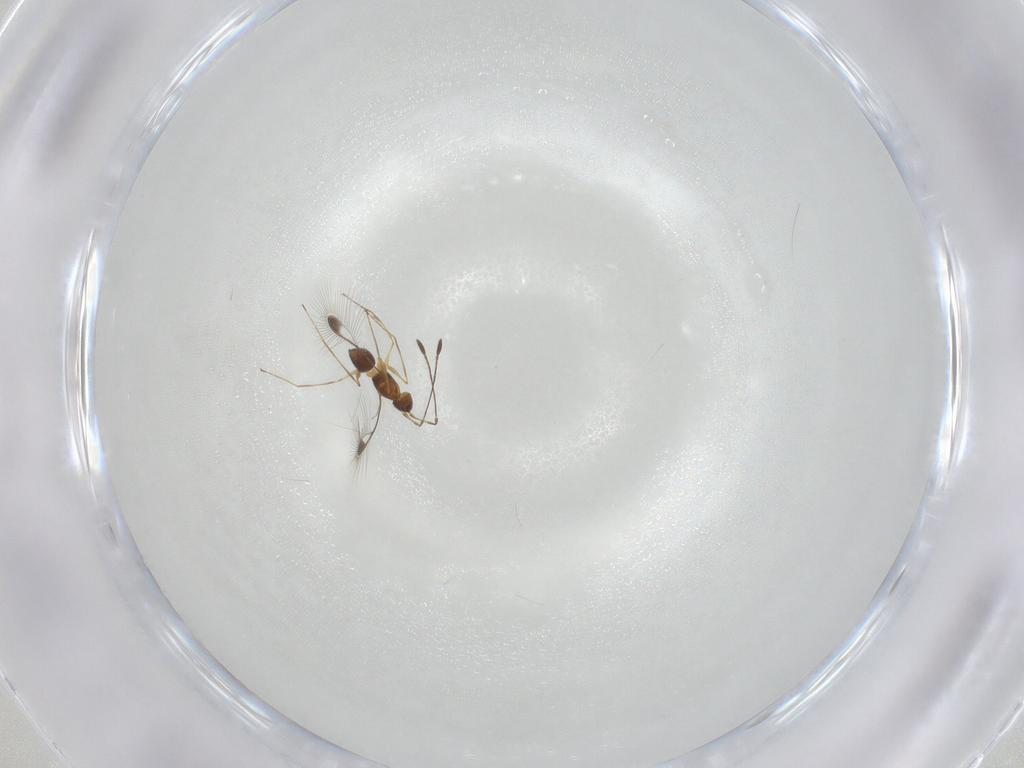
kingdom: Animalia
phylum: Arthropoda
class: Insecta
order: Hymenoptera
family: Mymaridae
